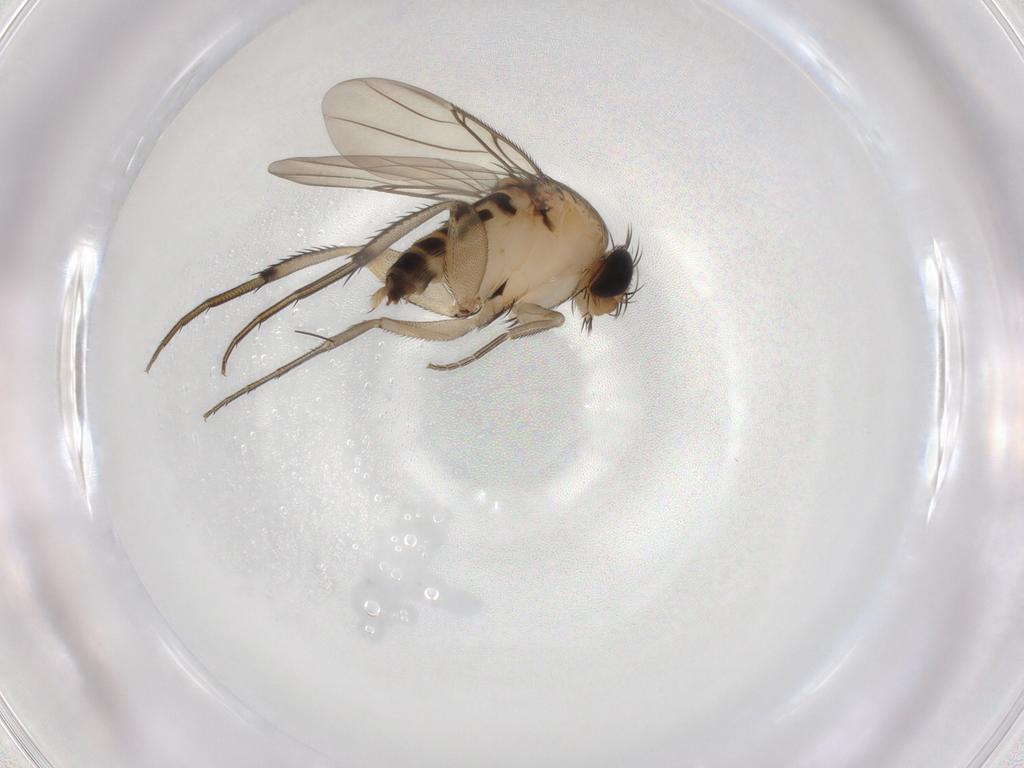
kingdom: Animalia
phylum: Arthropoda
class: Insecta
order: Diptera
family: Phoridae
